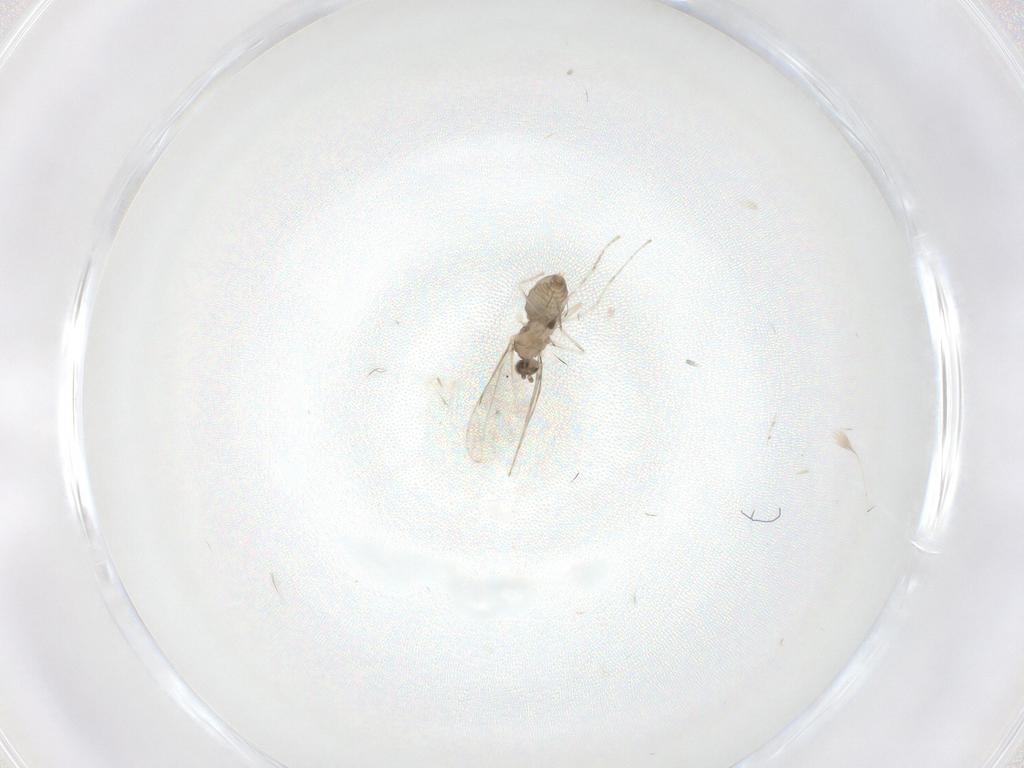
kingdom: Animalia
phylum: Arthropoda
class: Insecta
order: Diptera
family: Cecidomyiidae
